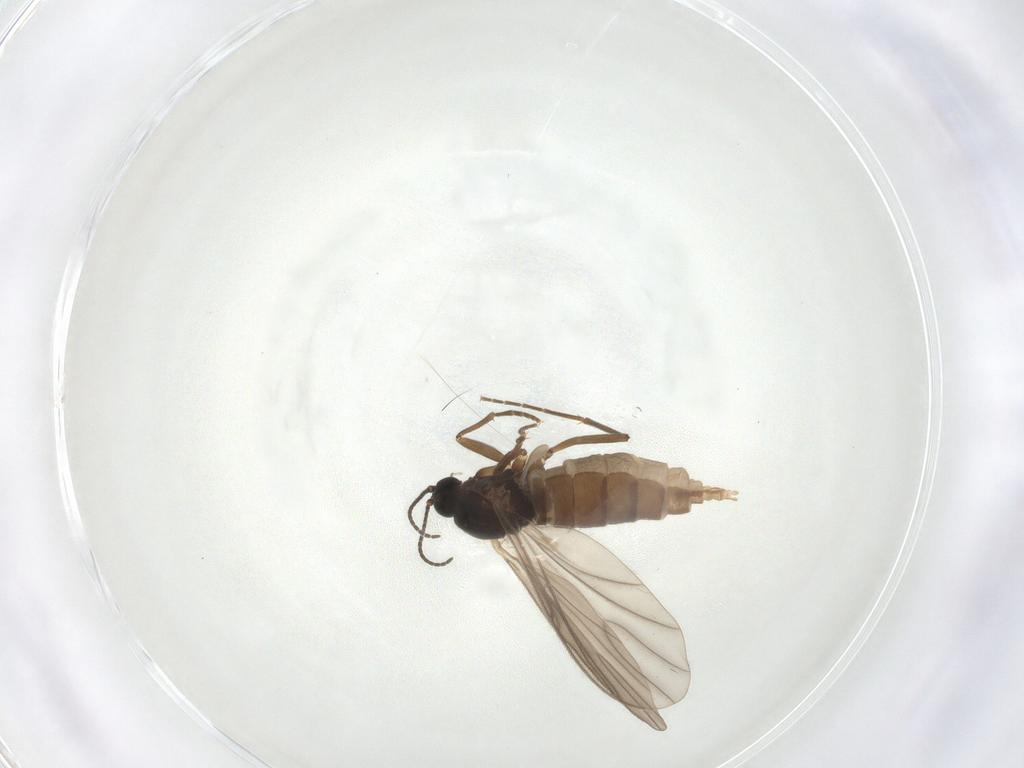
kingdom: Animalia
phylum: Arthropoda
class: Insecta
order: Diptera
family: Sciaridae
